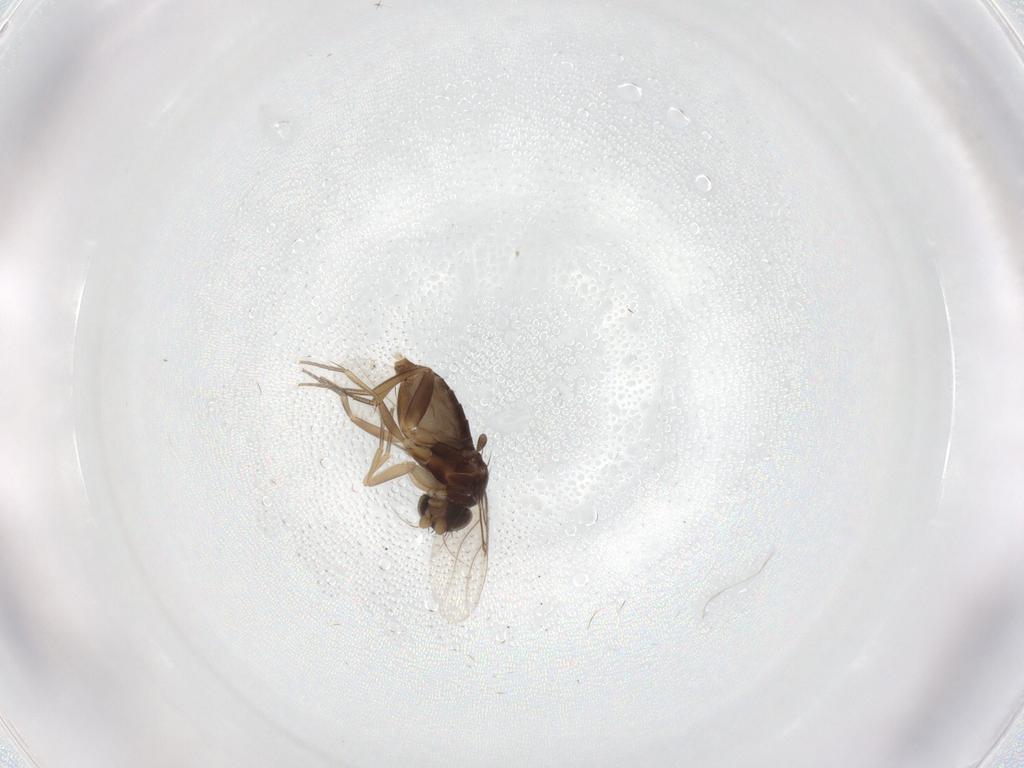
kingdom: Animalia
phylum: Arthropoda
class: Insecta
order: Diptera
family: Phoridae
